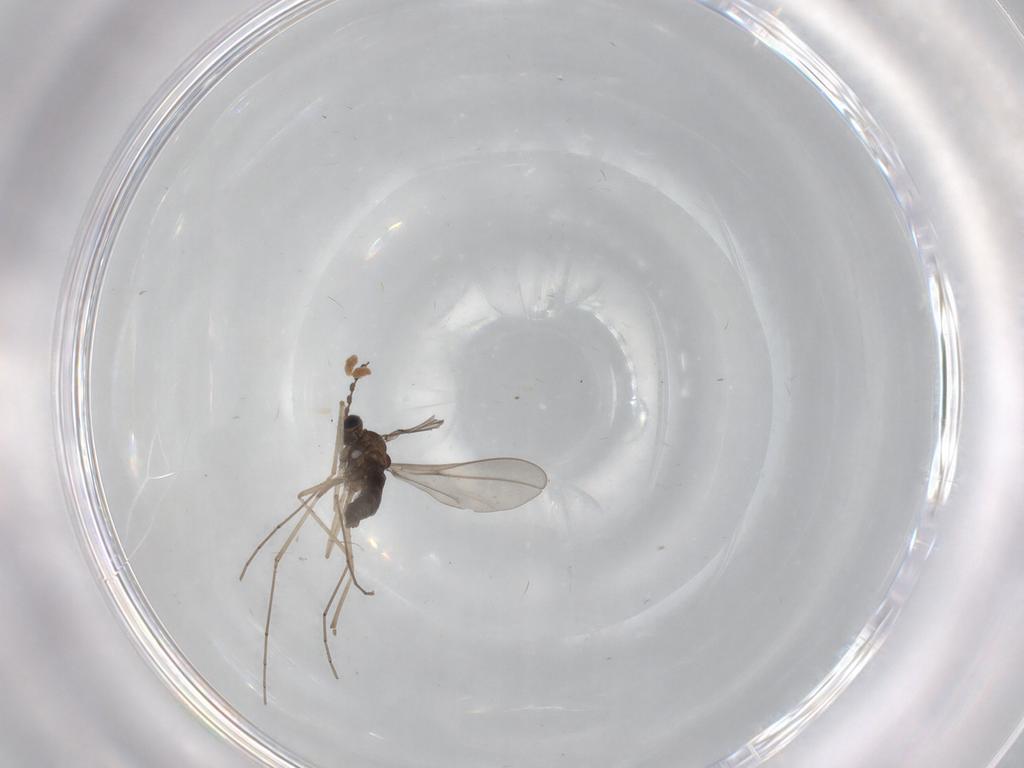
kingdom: Animalia
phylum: Arthropoda
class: Insecta
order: Diptera
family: Cecidomyiidae
